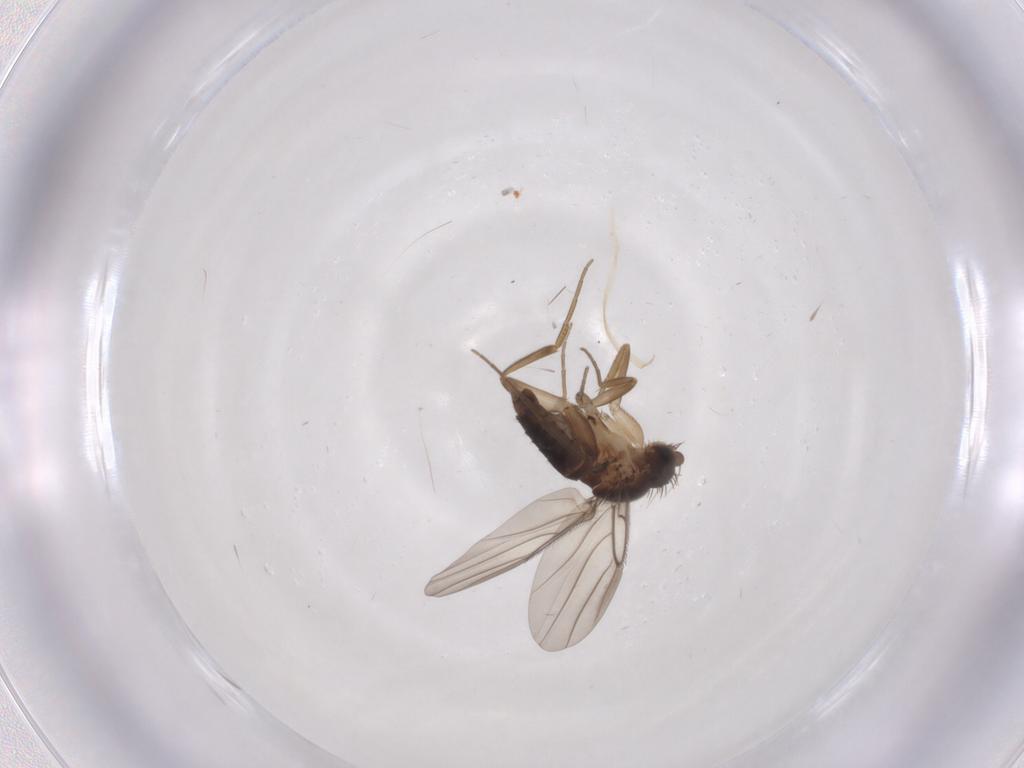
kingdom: Animalia
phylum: Arthropoda
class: Insecta
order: Diptera
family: Phoridae
